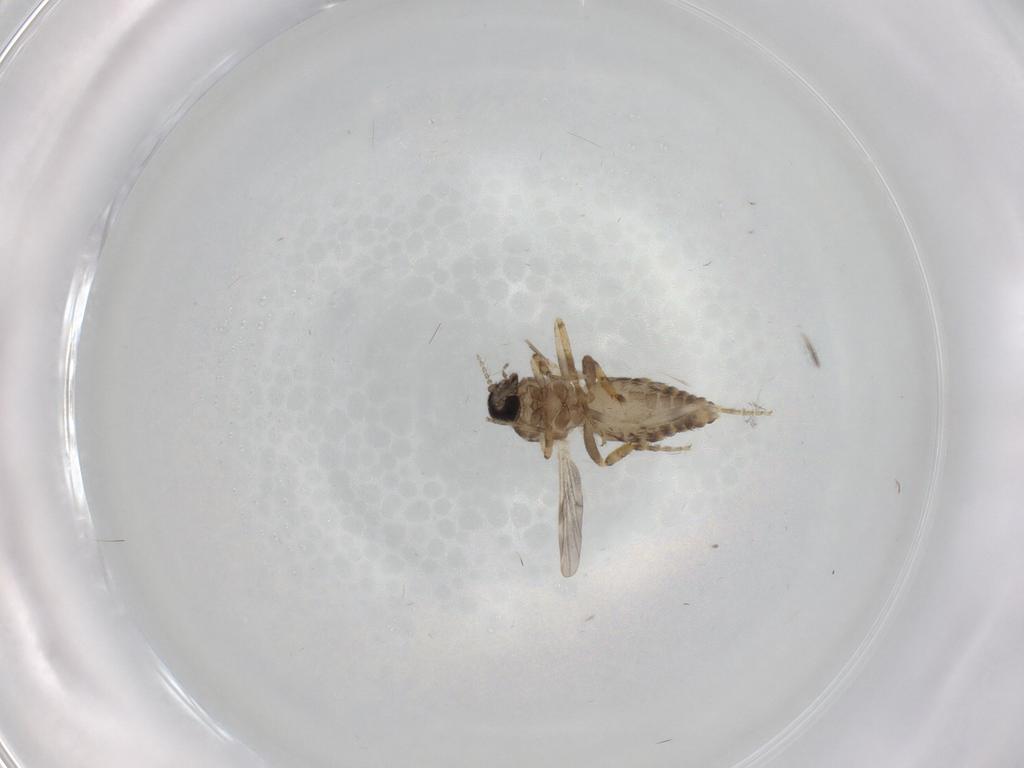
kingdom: Animalia
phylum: Arthropoda
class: Insecta
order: Diptera
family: Ceratopogonidae
